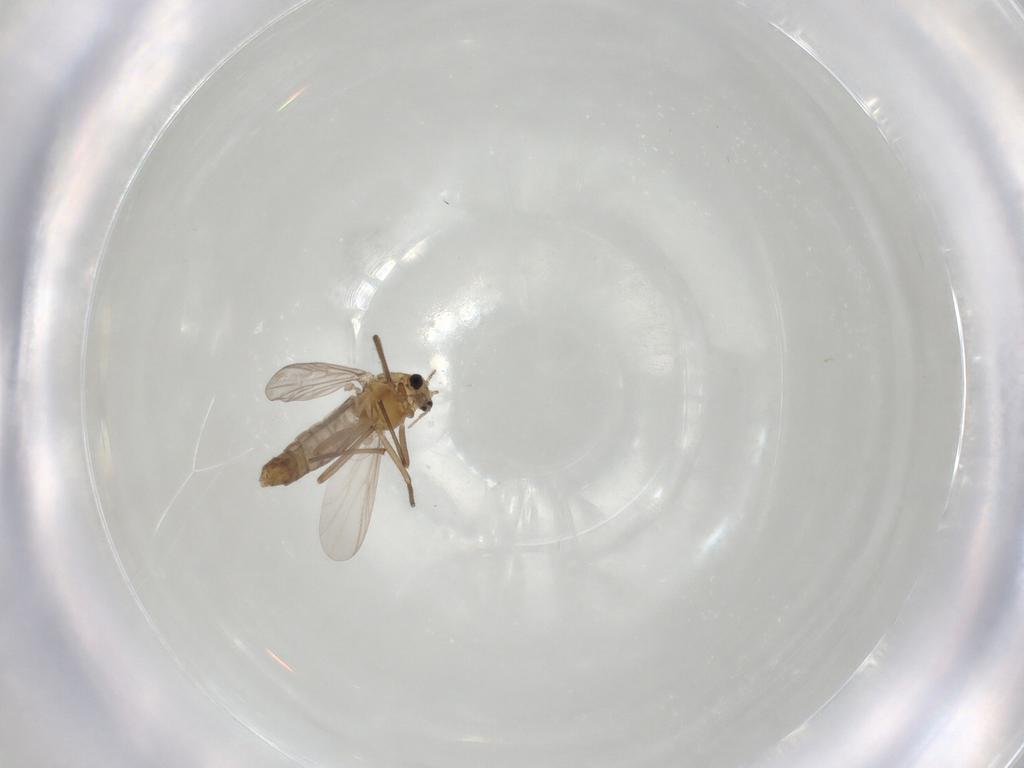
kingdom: Animalia
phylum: Arthropoda
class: Insecta
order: Diptera
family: Chironomidae
